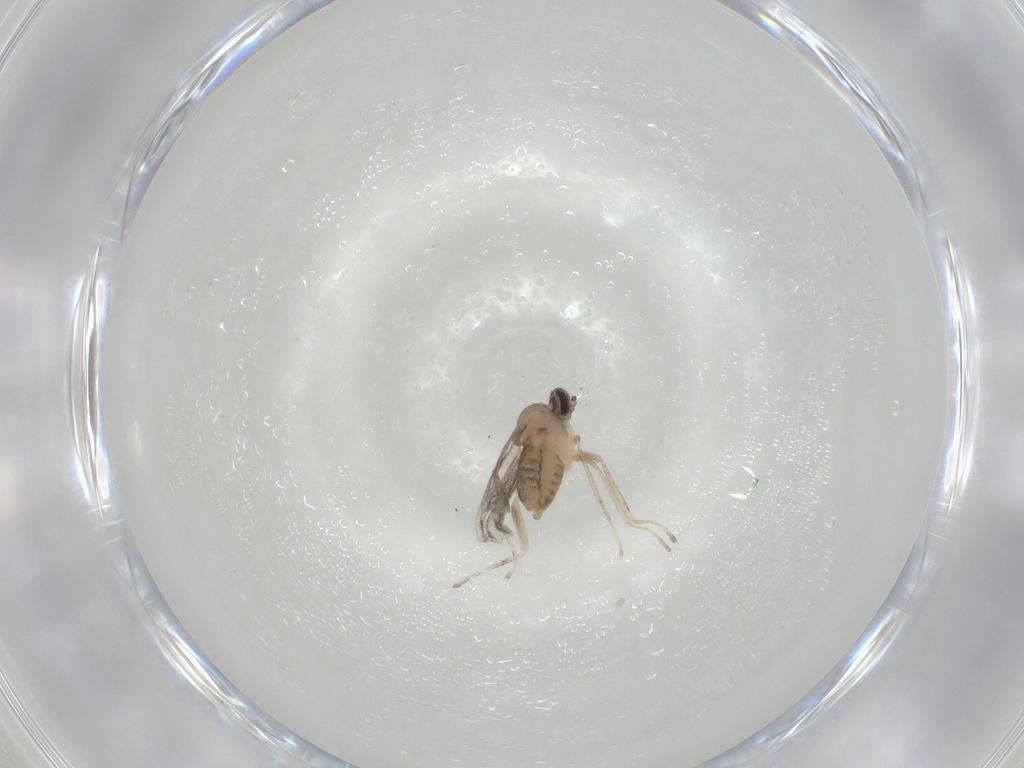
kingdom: Animalia
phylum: Arthropoda
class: Insecta
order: Diptera
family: Cecidomyiidae
